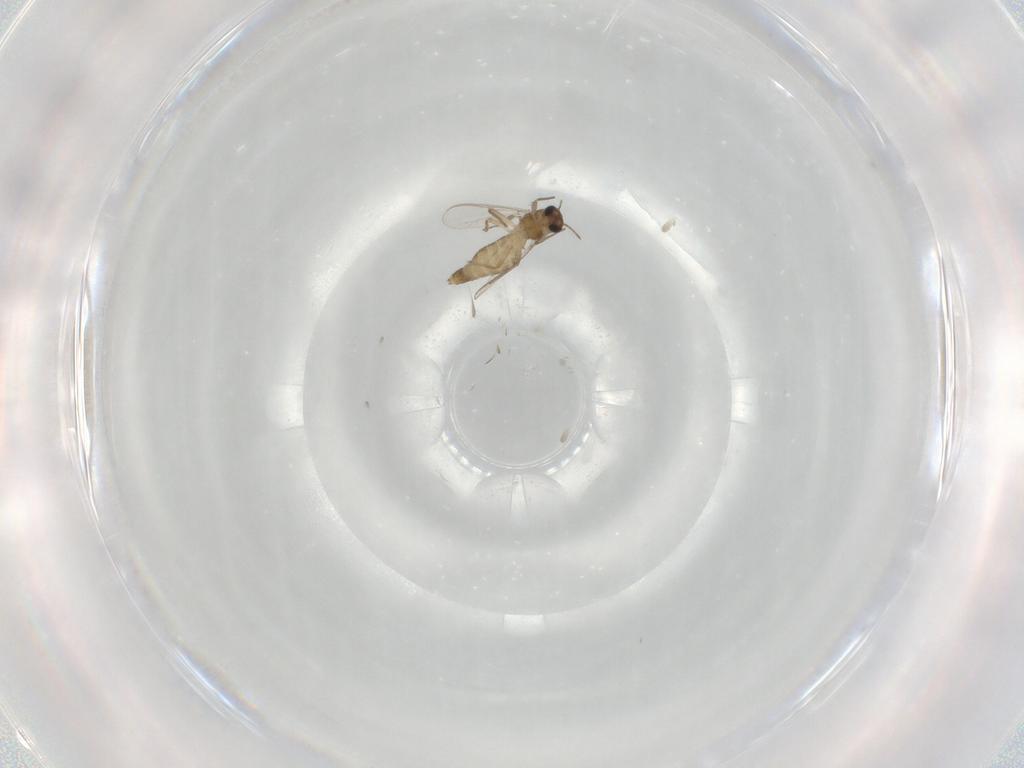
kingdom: Animalia
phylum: Arthropoda
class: Insecta
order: Diptera
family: Chironomidae
